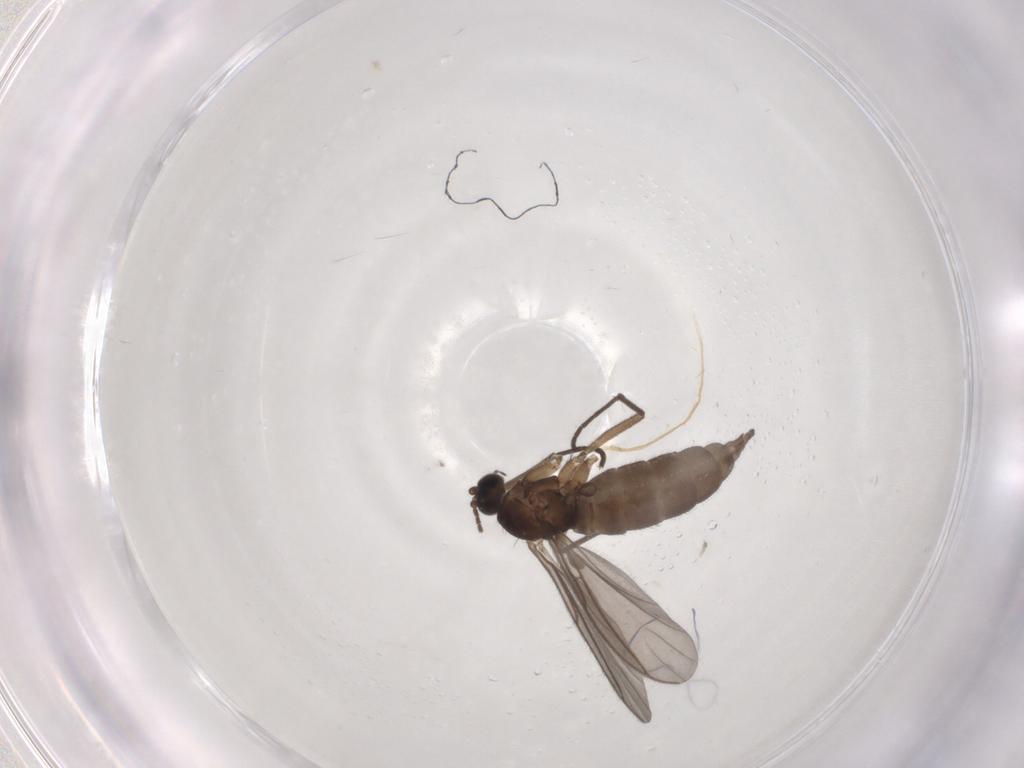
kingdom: Animalia
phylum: Arthropoda
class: Insecta
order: Diptera
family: Sciaridae
